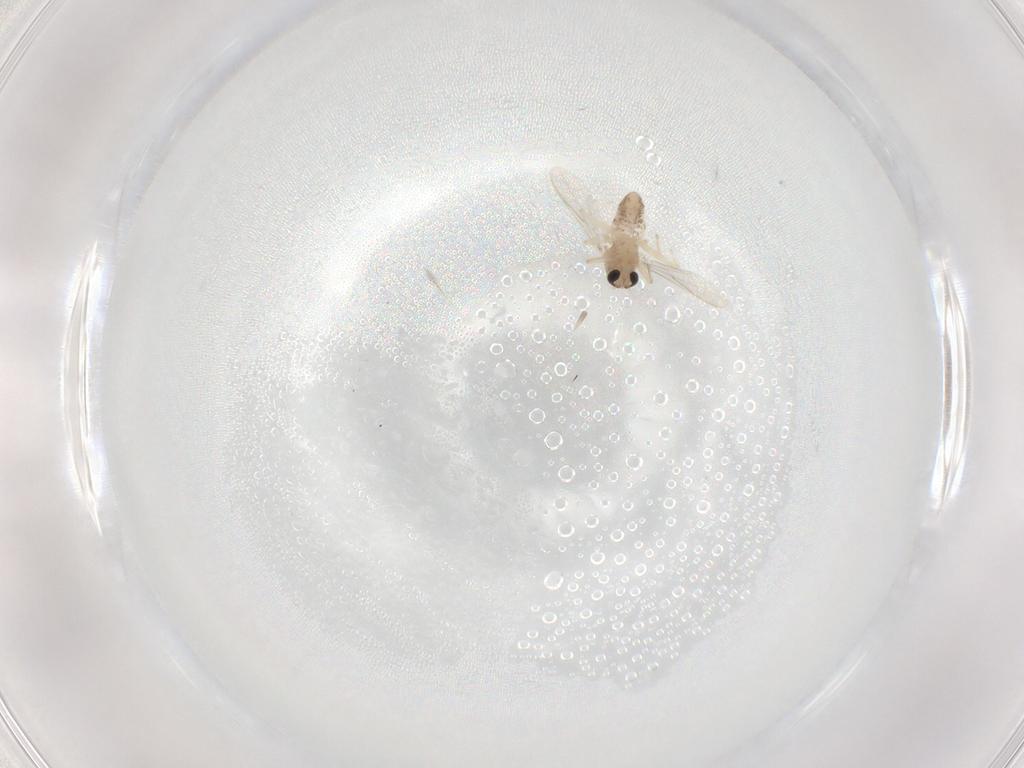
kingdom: Animalia
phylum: Arthropoda
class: Insecta
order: Diptera
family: Chironomidae
